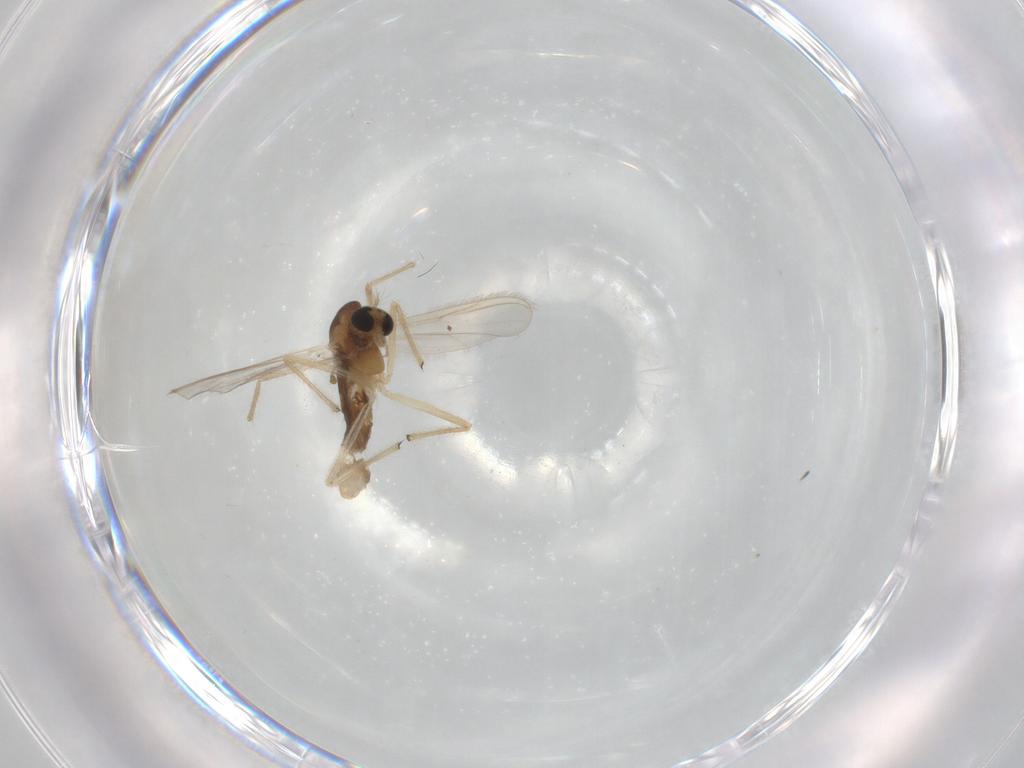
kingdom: Animalia
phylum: Arthropoda
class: Insecta
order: Diptera
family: Chironomidae
